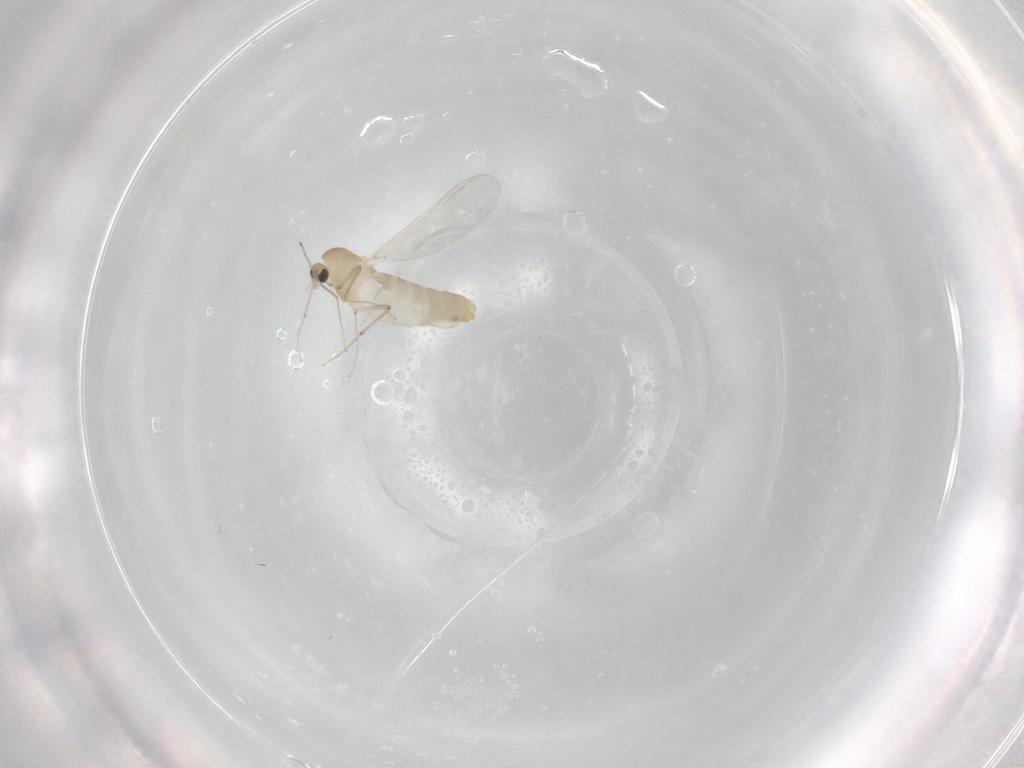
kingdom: Animalia
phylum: Arthropoda
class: Insecta
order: Diptera
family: Chironomidae
